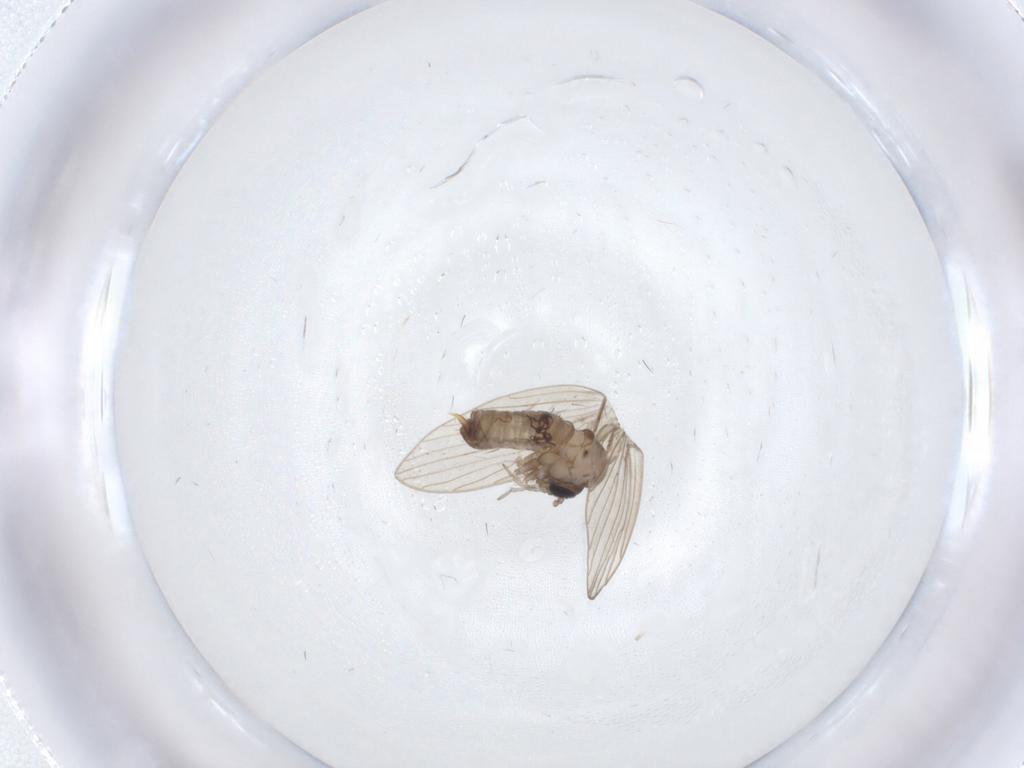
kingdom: Animalia
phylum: Arthropoda
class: Insecta
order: Diptera
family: Psychodidae
